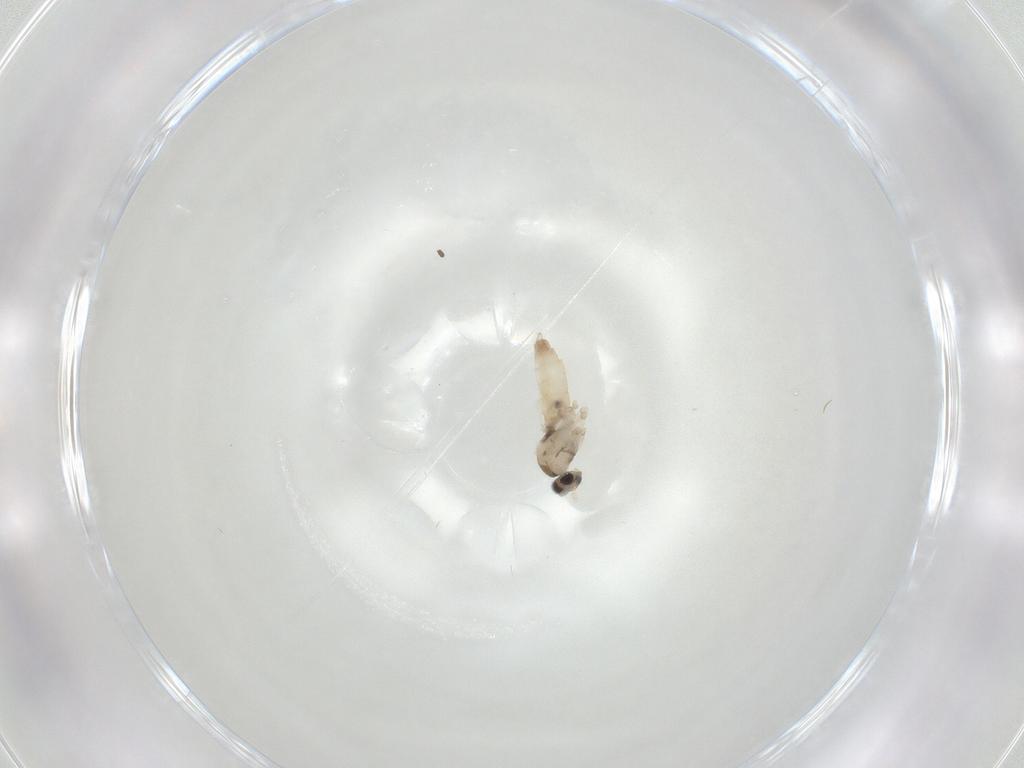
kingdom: Animalia
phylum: Arthropoda
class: Insecta
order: Diptera
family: Cecidomyiidae
